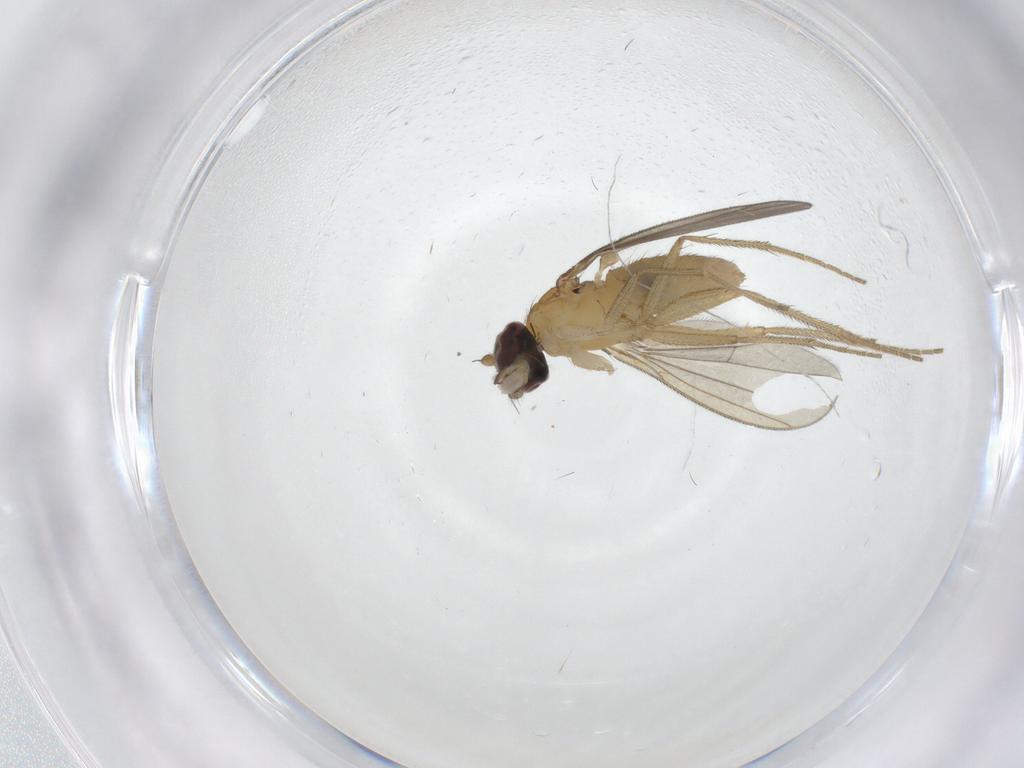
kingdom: Animalia
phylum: Arthropoda
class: Insecta
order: Diptera
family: Dolichopodidae
